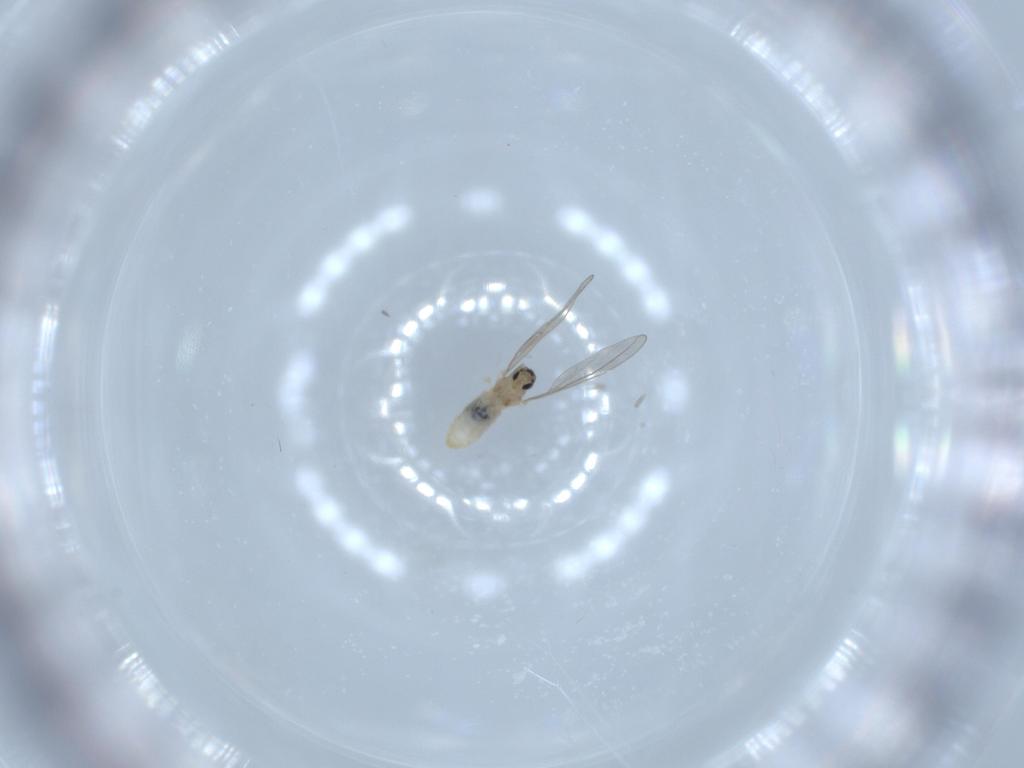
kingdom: Animalia
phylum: Arthropoda
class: Insecta
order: Diptera
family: Cecidomyiidae
